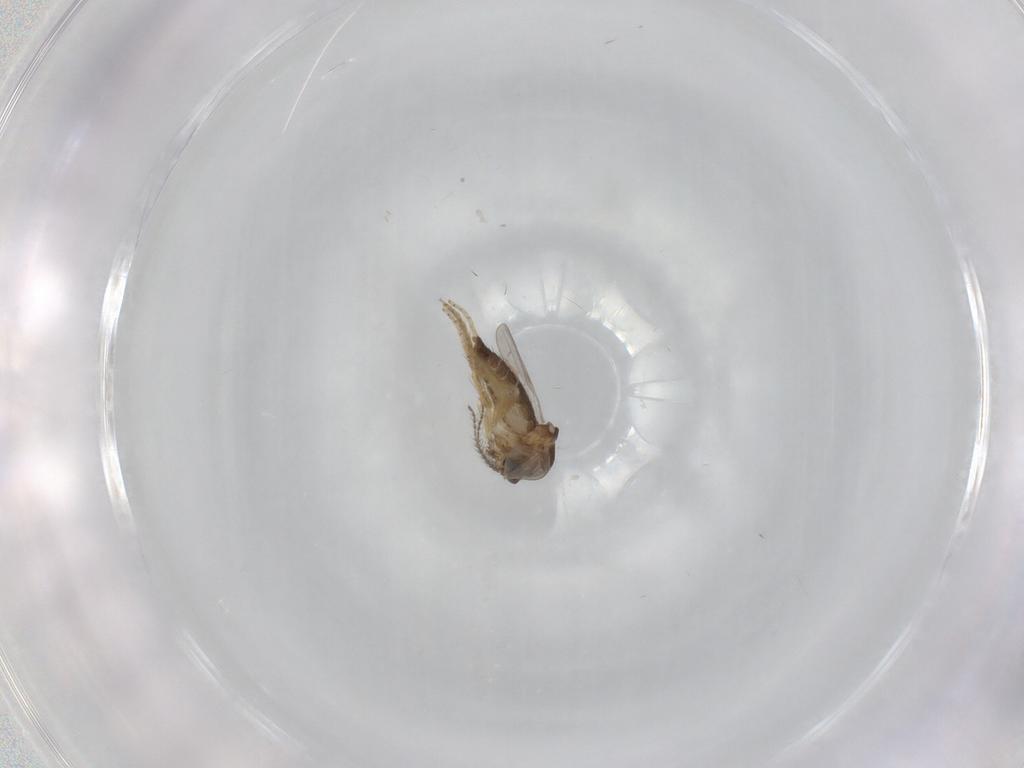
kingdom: Animalia
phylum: Arthropoda
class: Insecta
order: Diptera
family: Ceratopogonidae
